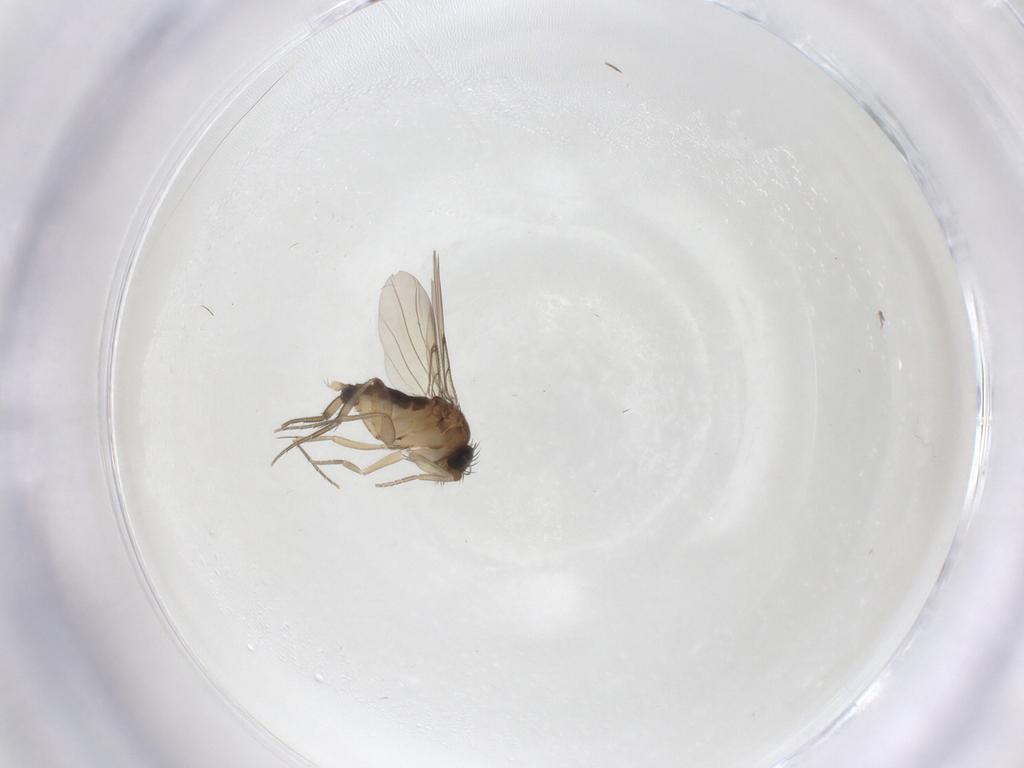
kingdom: Animalia
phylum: Arthropoda
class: Insecta
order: Diptera
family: Phoridae
